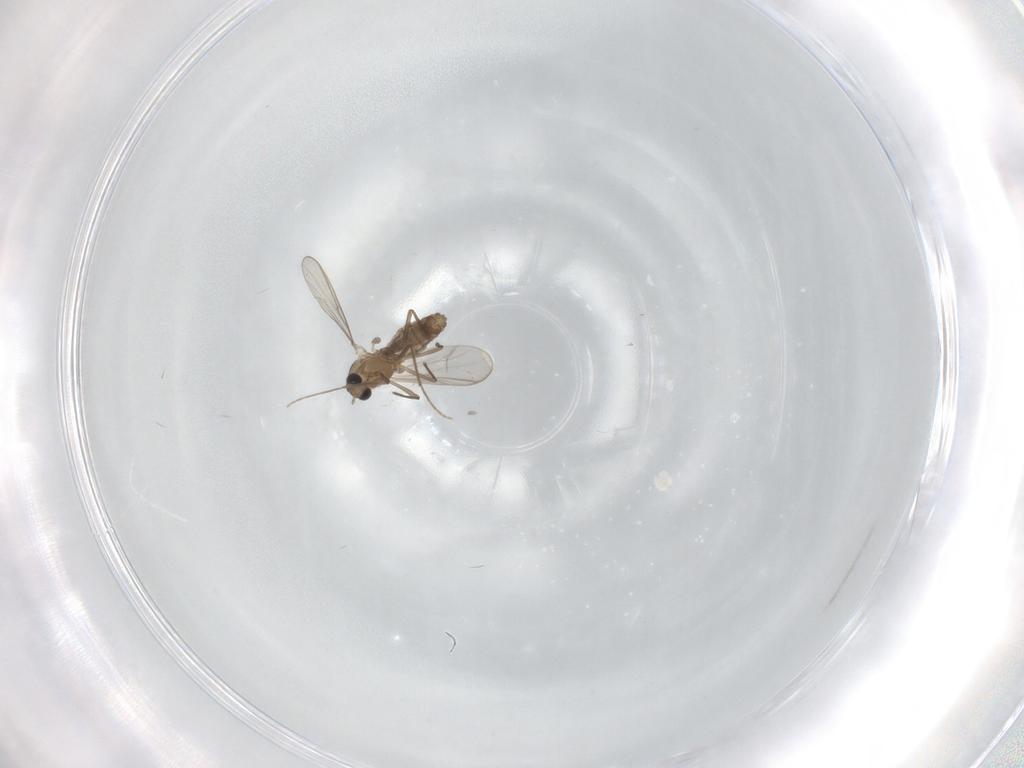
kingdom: Animalia
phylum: Arthropoda
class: Insecta
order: Diptera
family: Chironomidae
